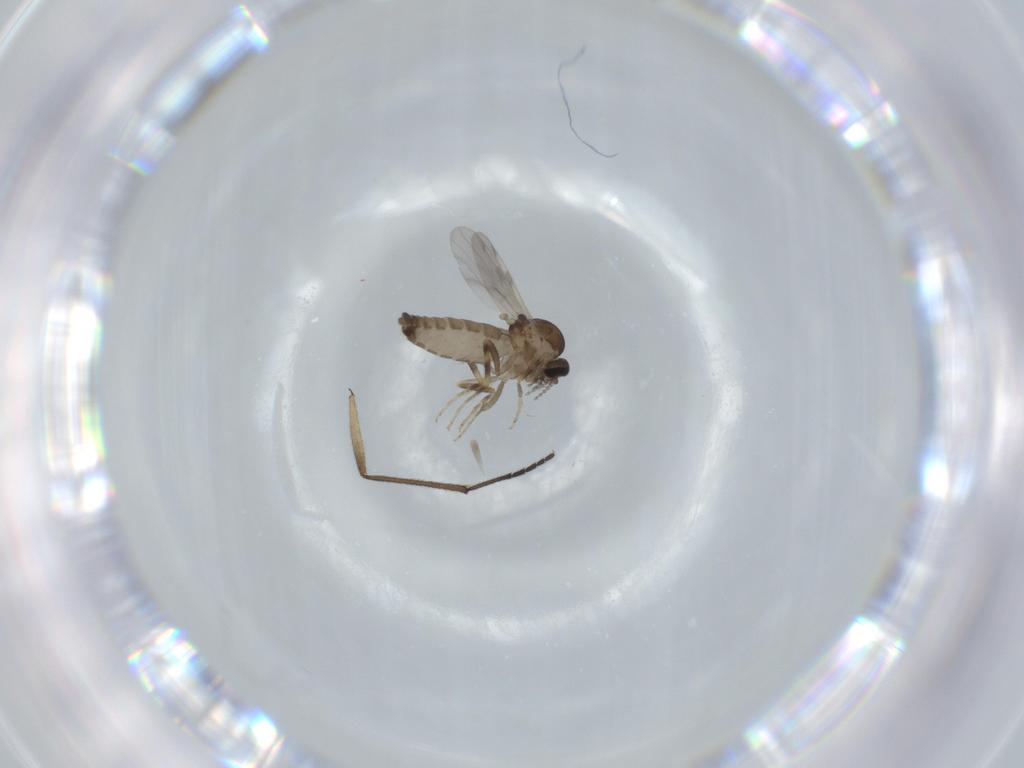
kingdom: Animalia
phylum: Arthropoda
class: Insecta
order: Diptera
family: Ceratopogonidae
